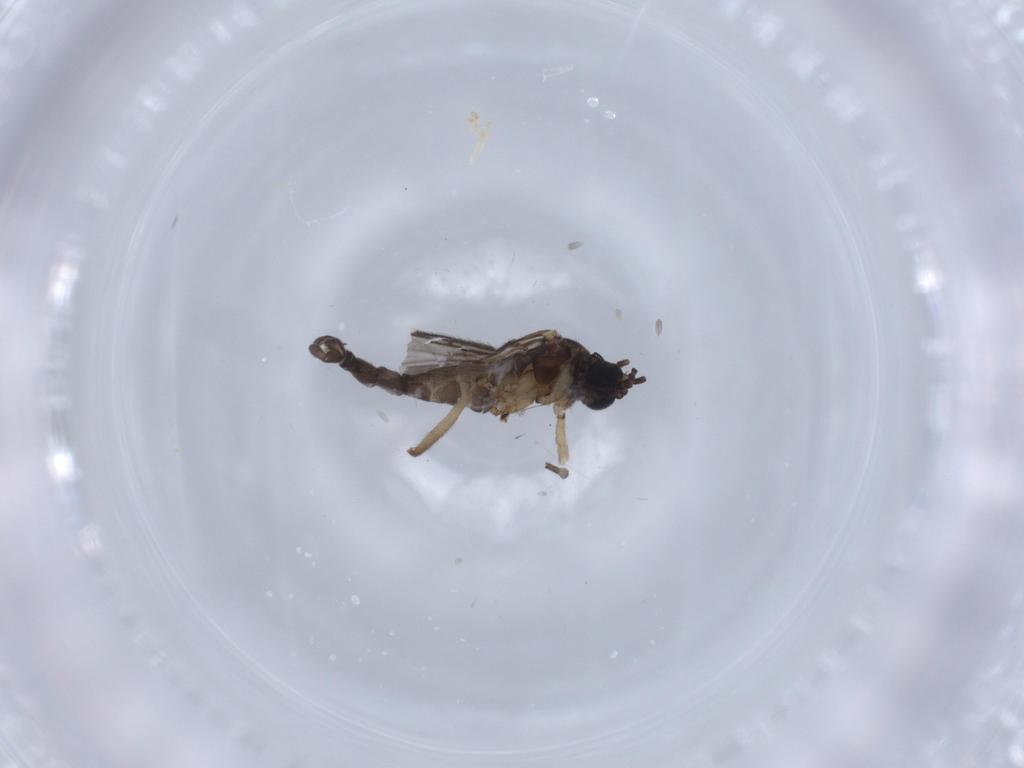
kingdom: Animalia
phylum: Arthropoda
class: Insecta
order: Diptera
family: Sciaridae
